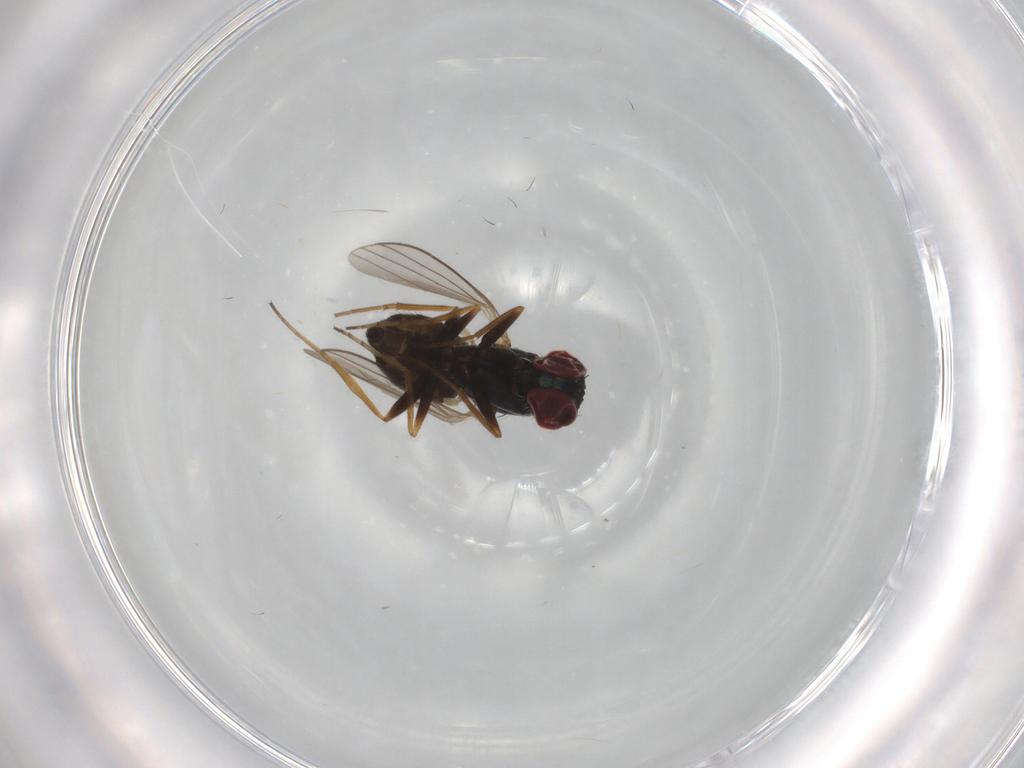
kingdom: Animalia
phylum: Arthropoda
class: Insecta
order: Diptera
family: Dolichopodidae
